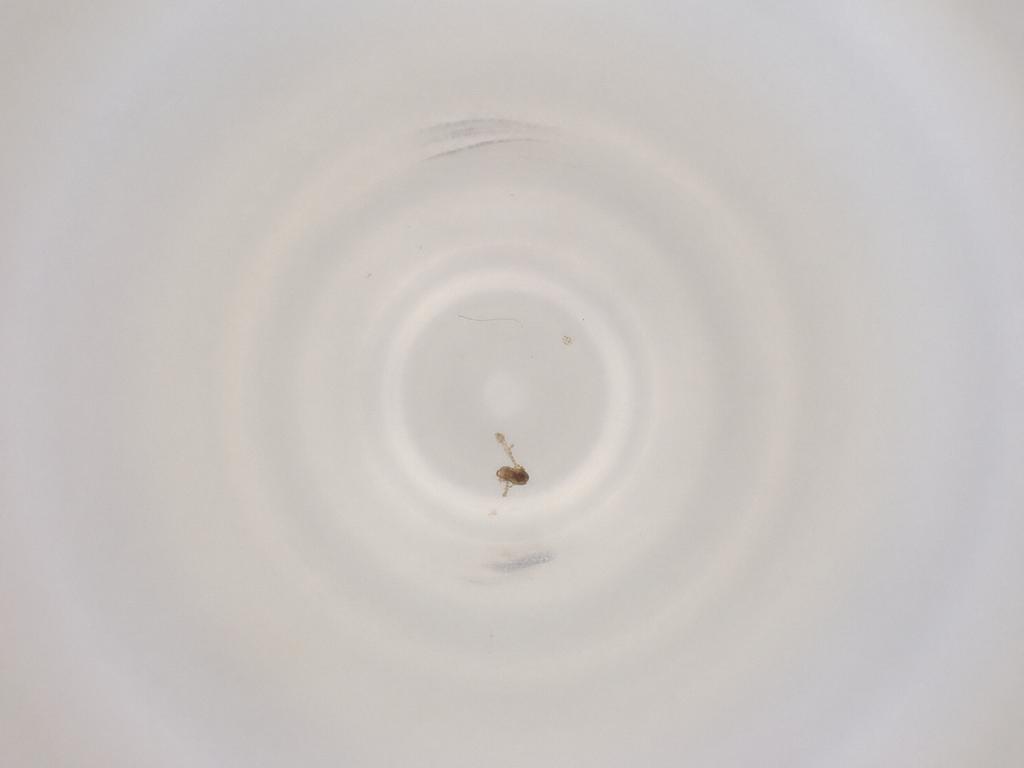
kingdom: Animalia
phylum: Arthropoda
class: Insecta
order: Diptera
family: Cecidomyiidae
